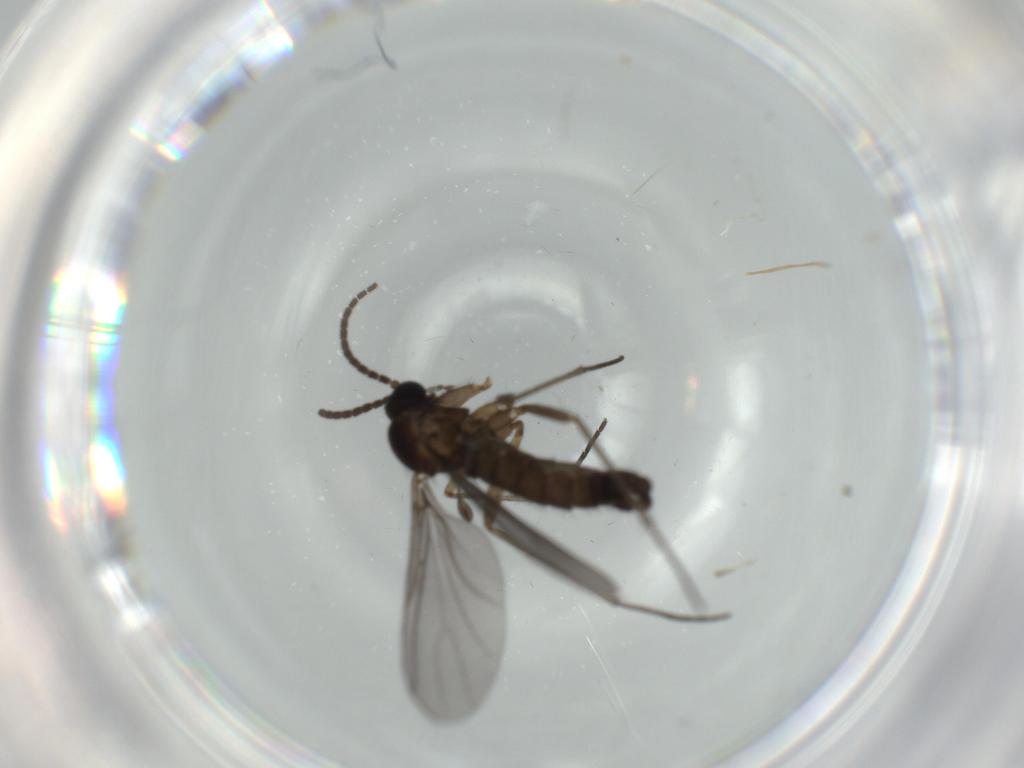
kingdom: Animalia
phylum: Arthropoda
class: Insecta
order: Diptera
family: Sciaridae
